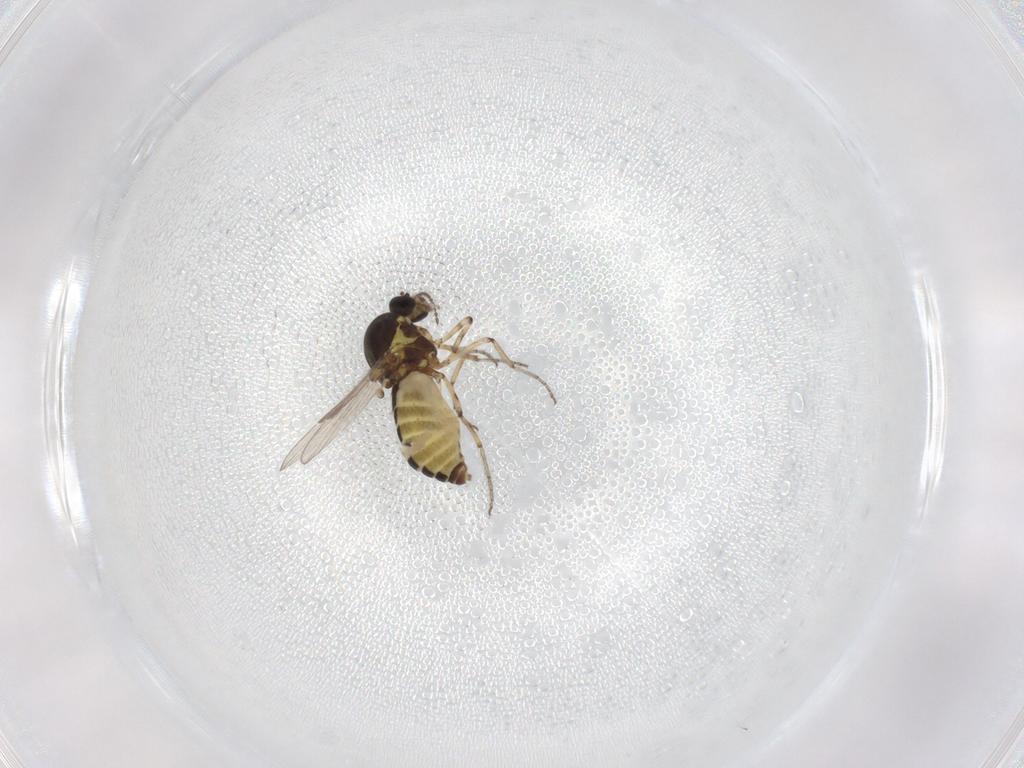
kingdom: Animalia
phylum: Arthropoda
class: Insecta
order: Diptera
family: Ceratopogonidae
